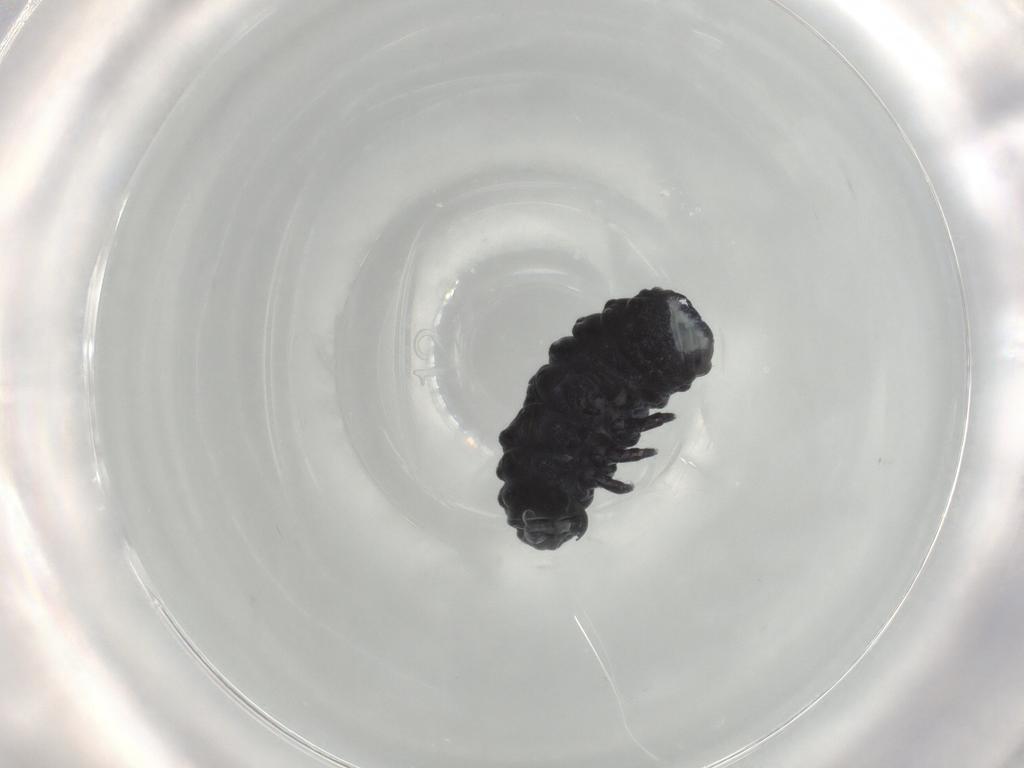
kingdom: Animalia
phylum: Arthropoda
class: Collembola
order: Poduromorpha
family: Neanuridae
